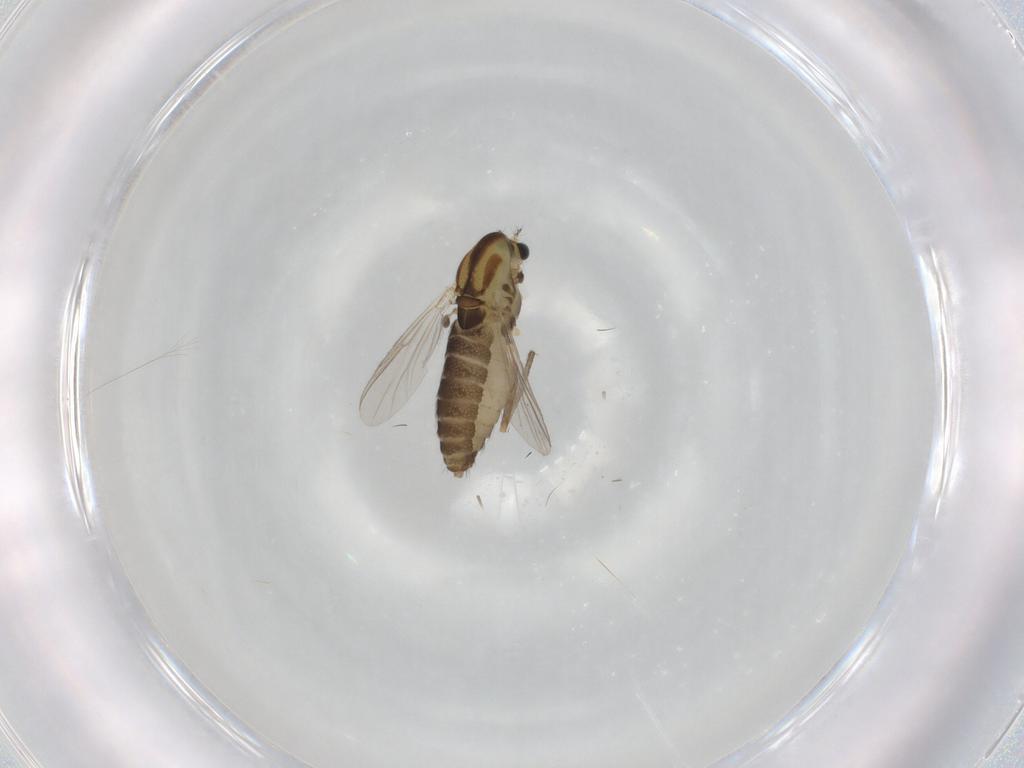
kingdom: Animalia
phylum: Arthropoda
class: Insecta
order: Diptera
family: Chironomidae
